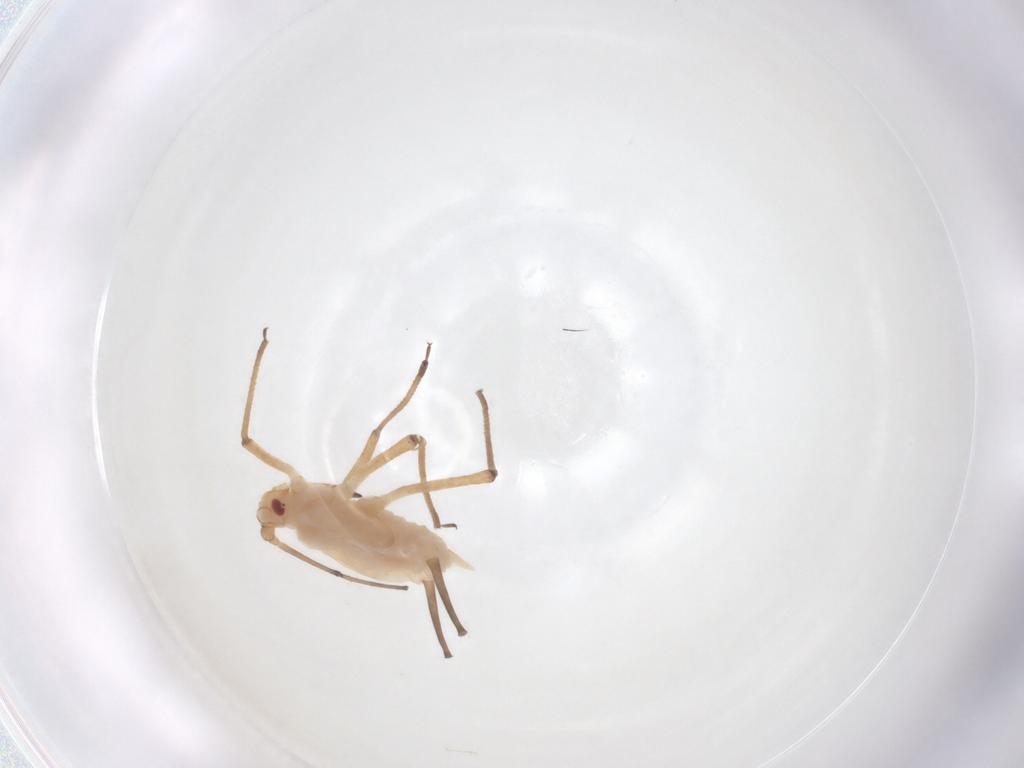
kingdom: Animalia
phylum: Arthropoda
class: Insecta
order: Hemiptera
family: Aphididae
